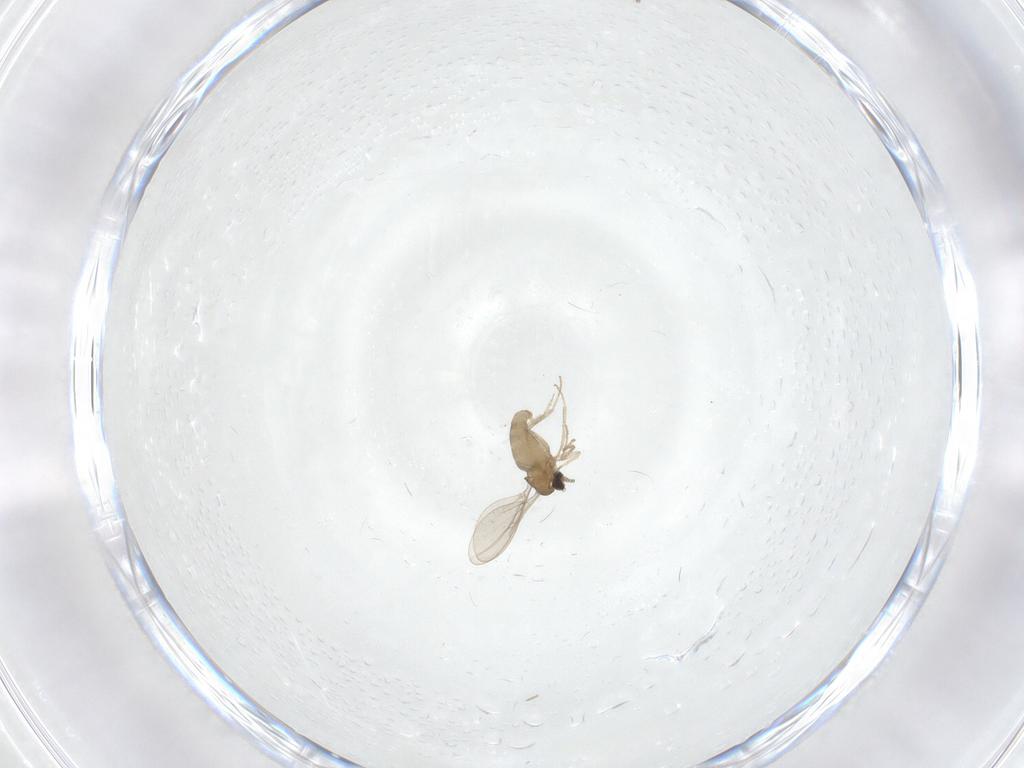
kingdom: Animalia
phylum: Arthropoda
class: Insecta
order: Diptera
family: Cecidomyiidae
